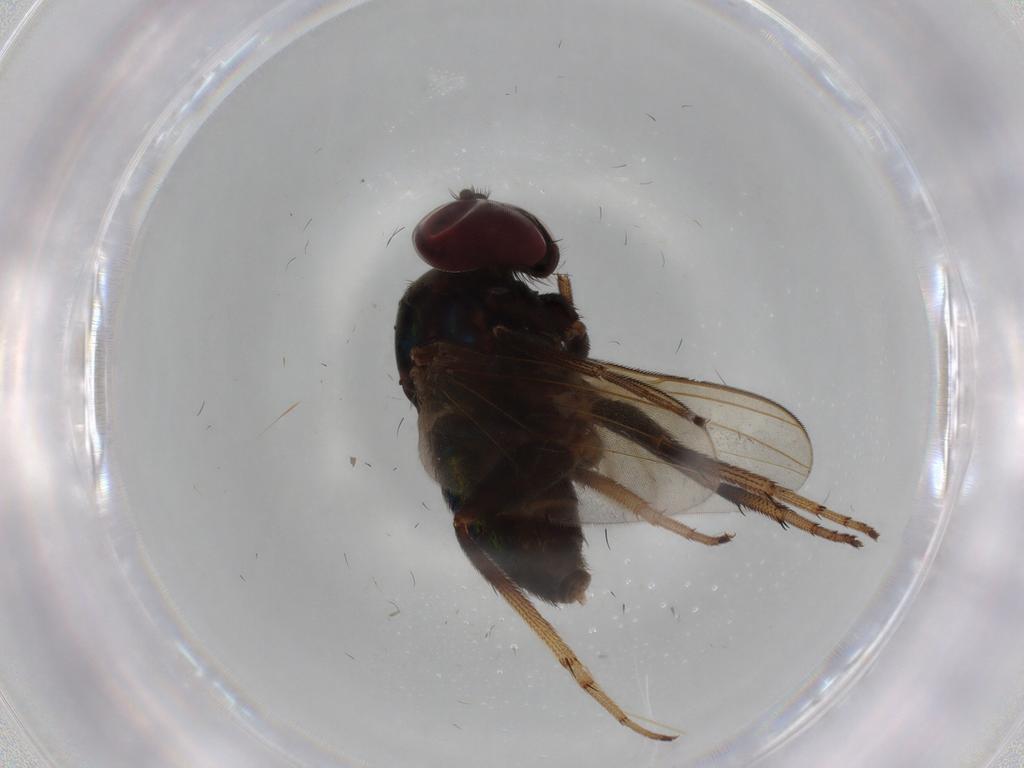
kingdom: Animalia
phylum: Arthropoda
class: Insecta
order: Diptera
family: Ephydridae
